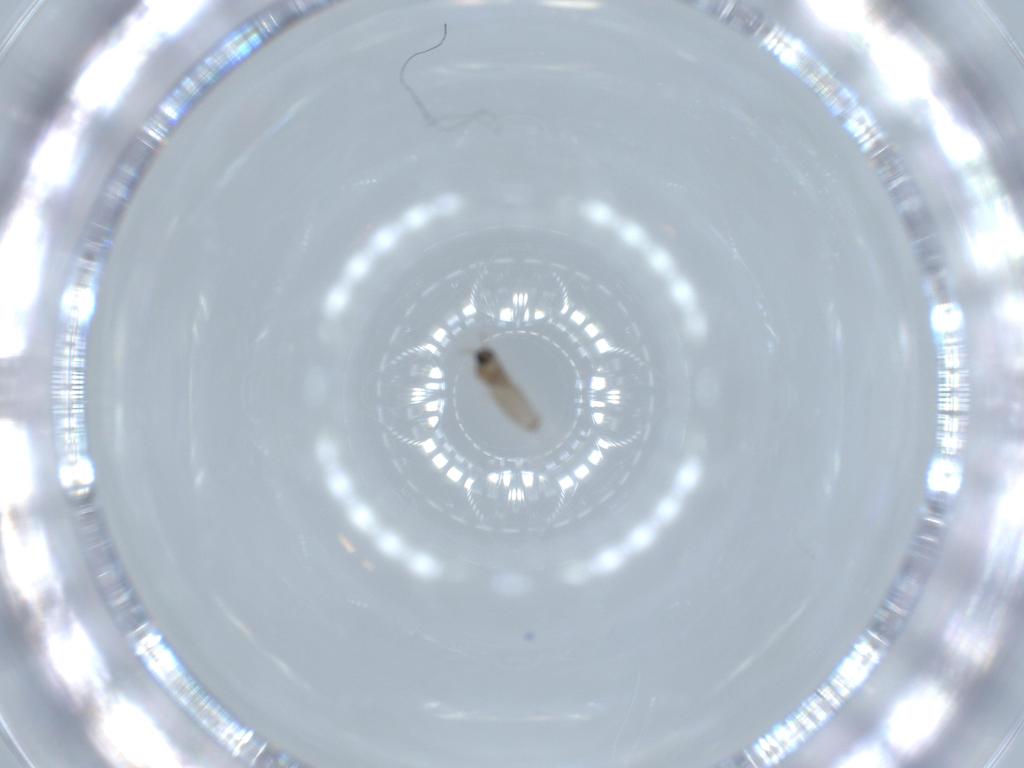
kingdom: Animalia
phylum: Arthropoda
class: Insecta
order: Diptera
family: Cecidomyiidae
